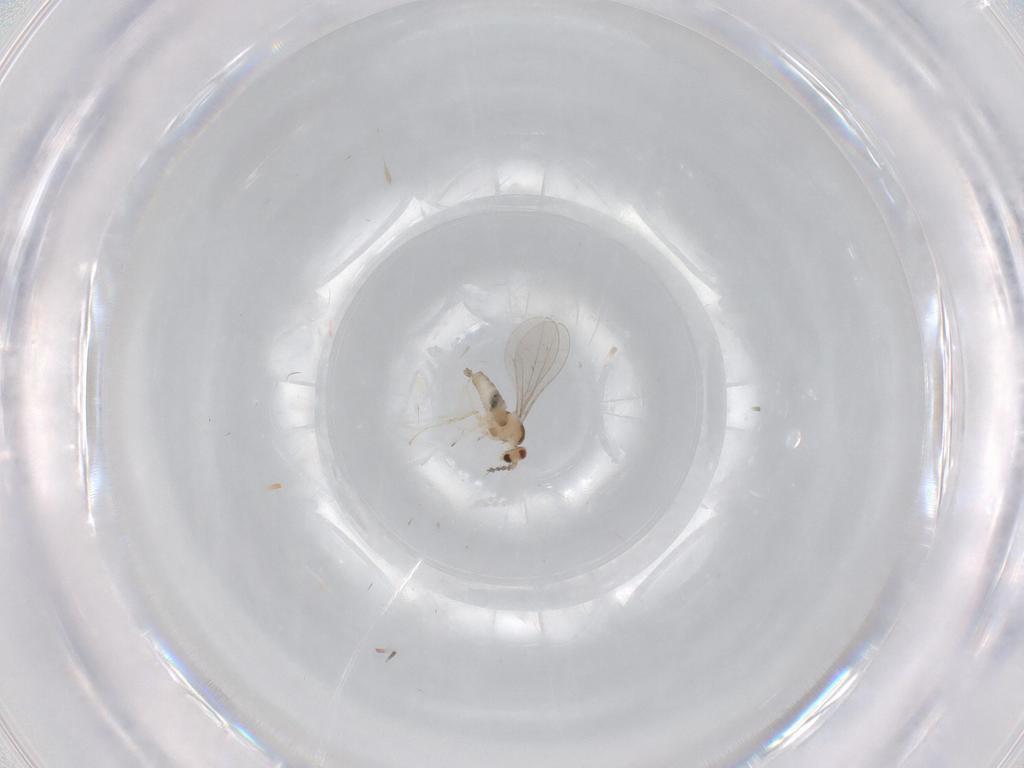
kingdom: Animalia
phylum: Arthropoda
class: Insecta
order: Diptera
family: Cecidomyiidae
